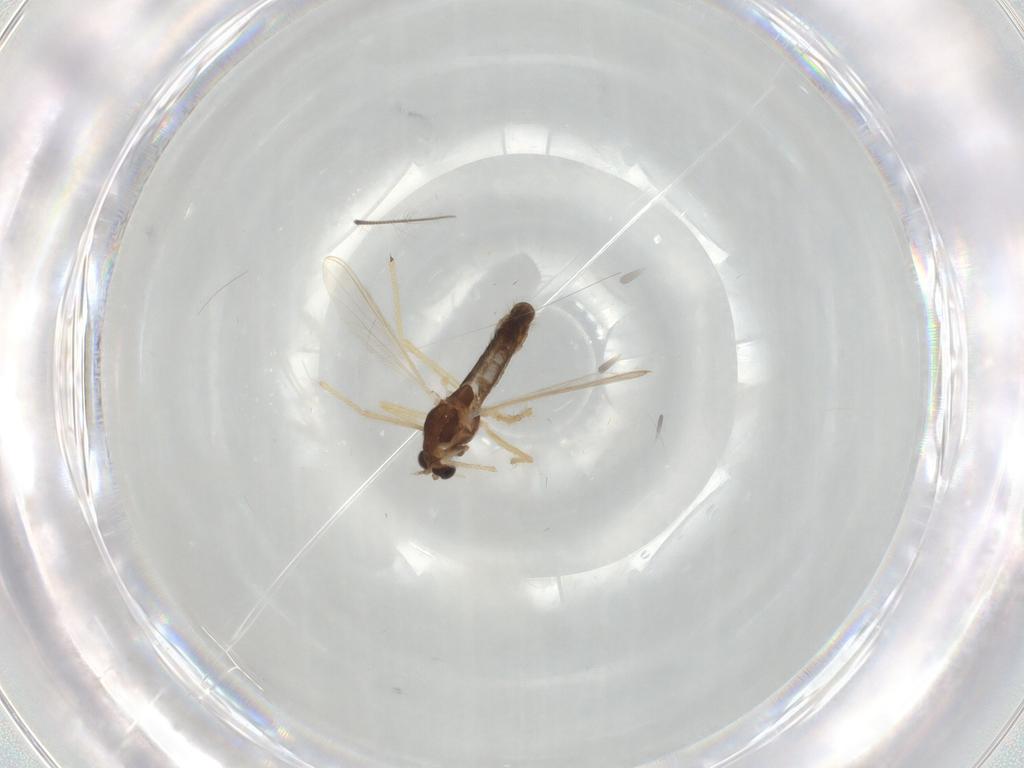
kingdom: Animalia
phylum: Arthropoda
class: Insecta
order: Diptera
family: Chironomidae
